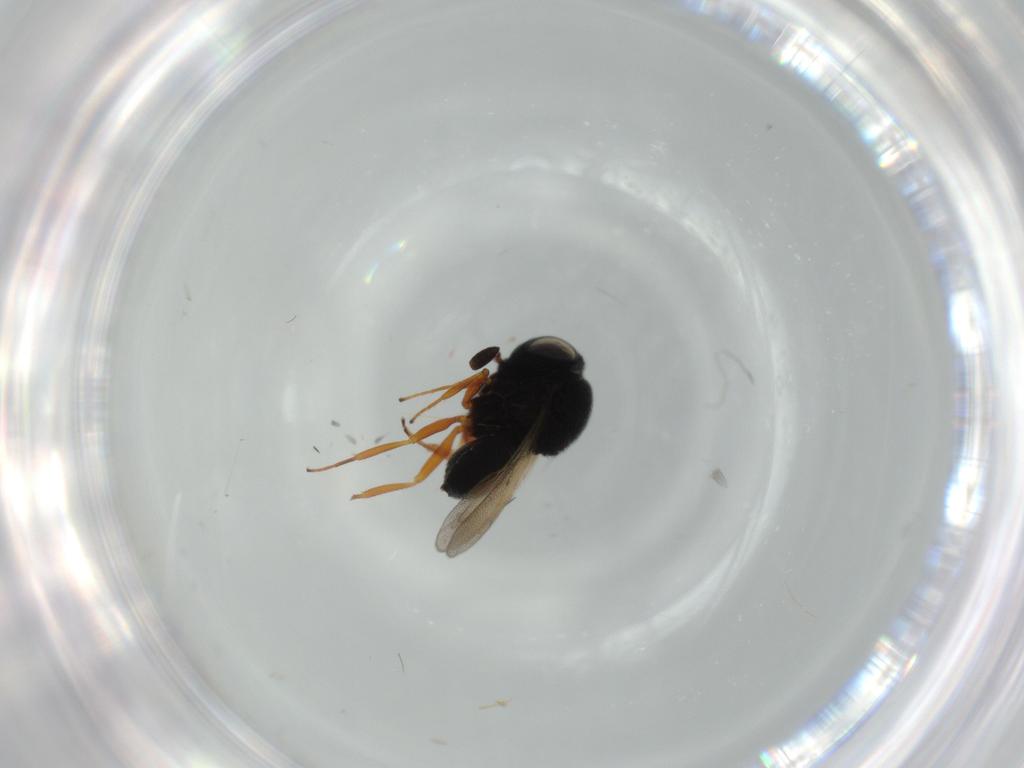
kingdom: Animalia
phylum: Arthropoda
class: Insecta
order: Hymenoptera
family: Scelionidae
